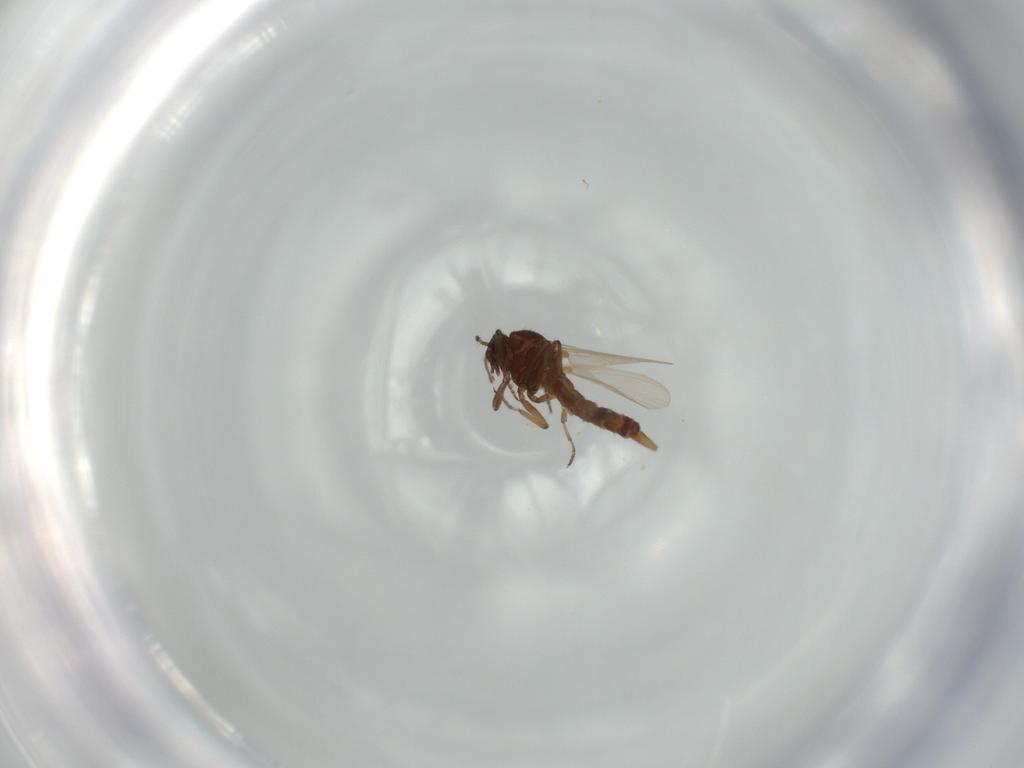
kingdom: Animalia
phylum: Arthropoda
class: Insecta
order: Diptera
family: Ceratopogonidae
